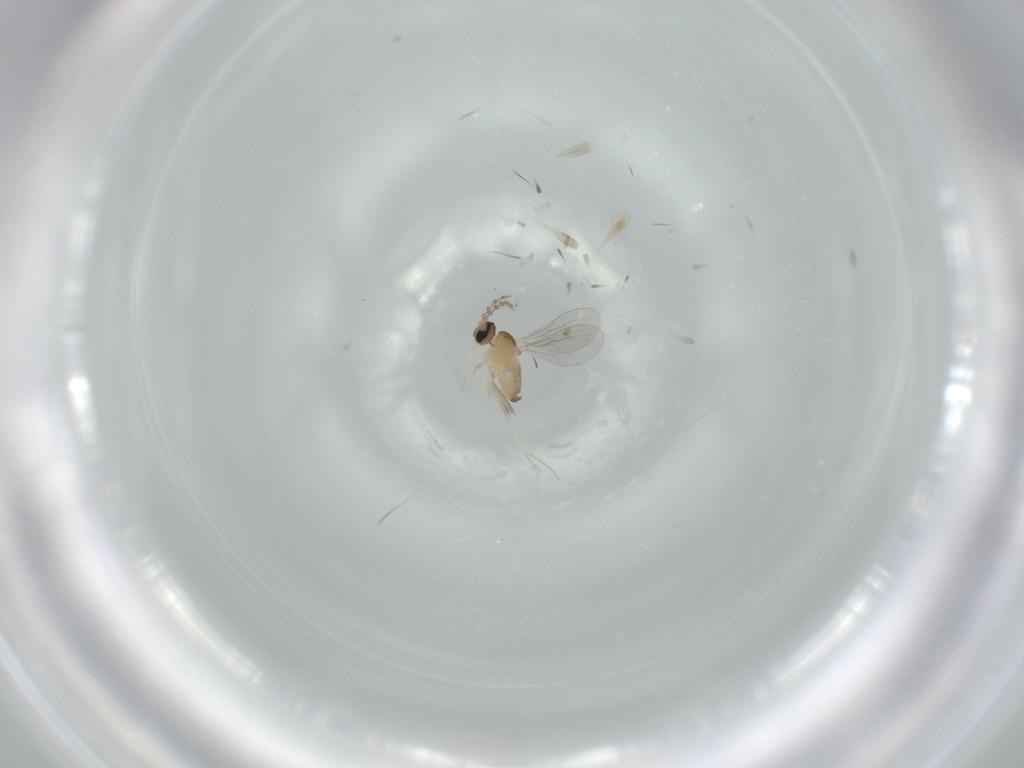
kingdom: Animalia
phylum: Arthropoda
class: Insecta
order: Diptera
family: Cecidomyiidae
